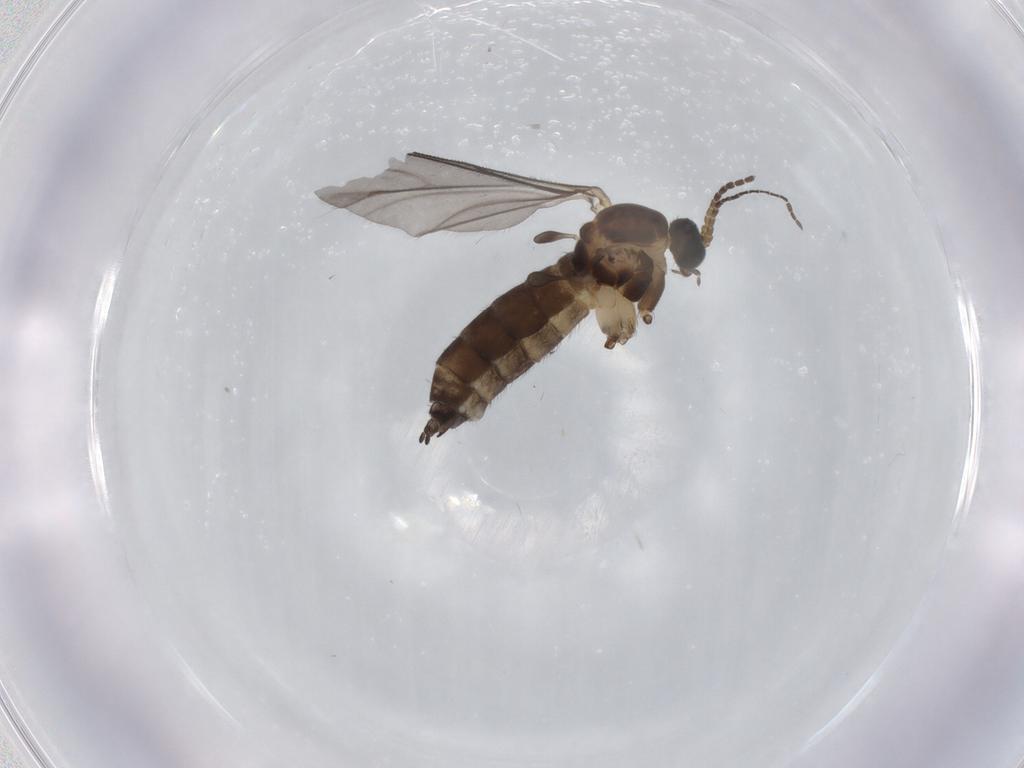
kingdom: Animalia
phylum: Arthropoda
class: Insecta
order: Diptera
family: Sciaridae
